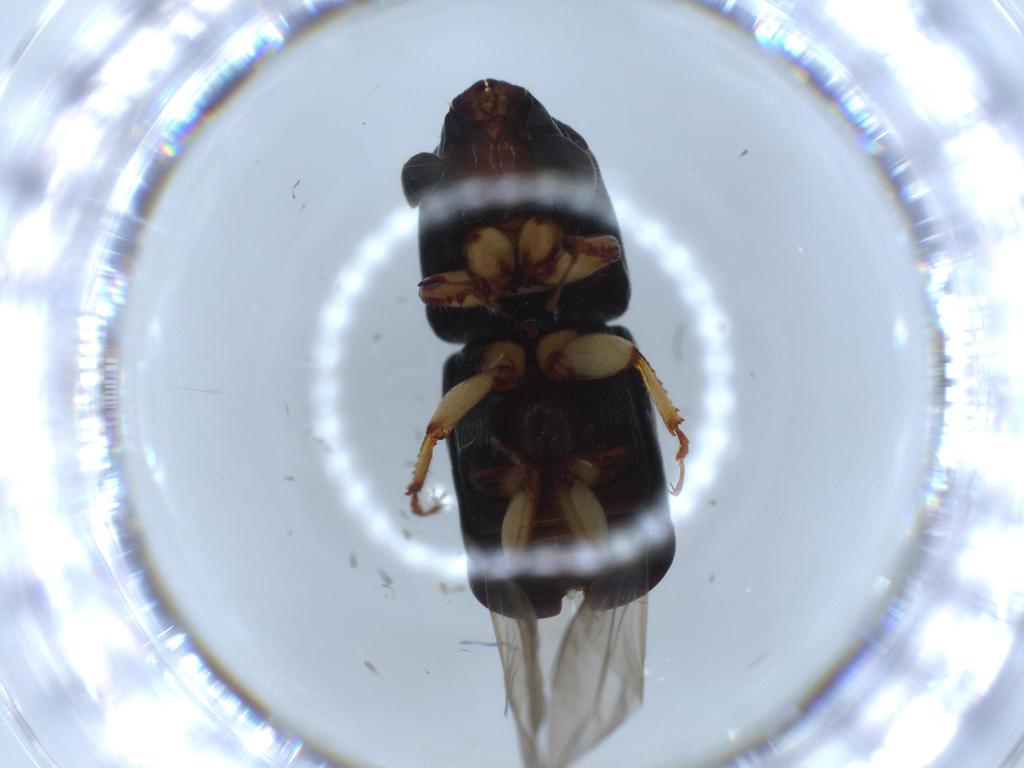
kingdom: Animalia
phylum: Arthropoda
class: Insecta
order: Coleoptera
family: Curculionidae
